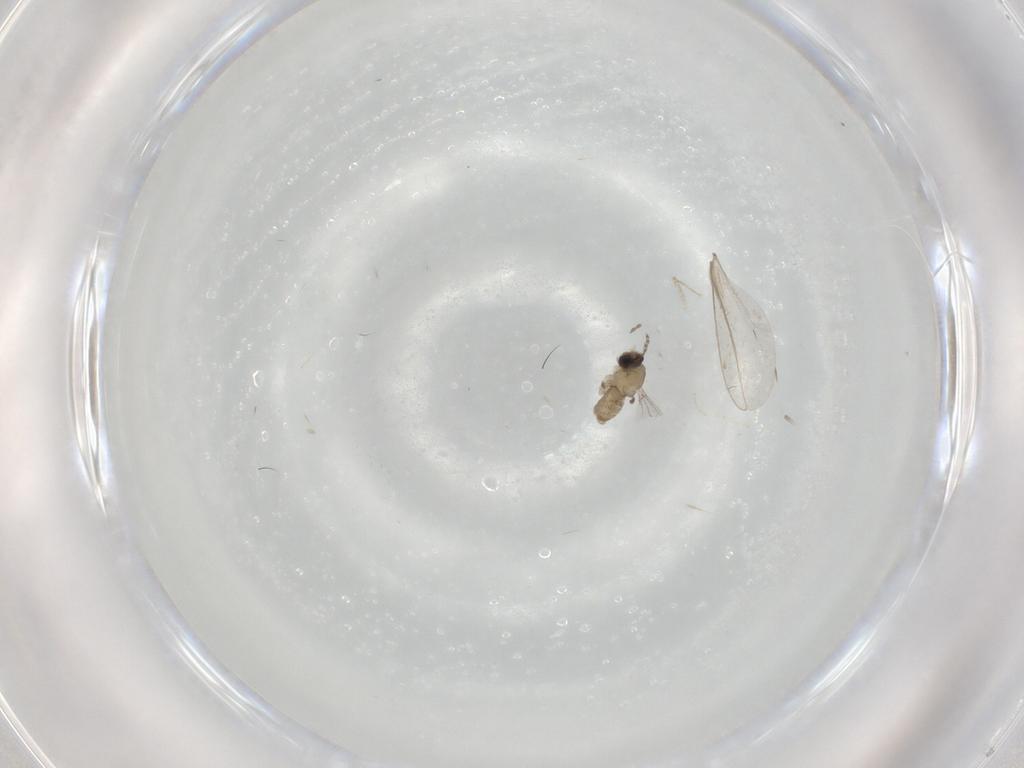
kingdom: Animalia
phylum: Arthropoda
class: Insecta
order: Diptera
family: Cecidomyiidae
